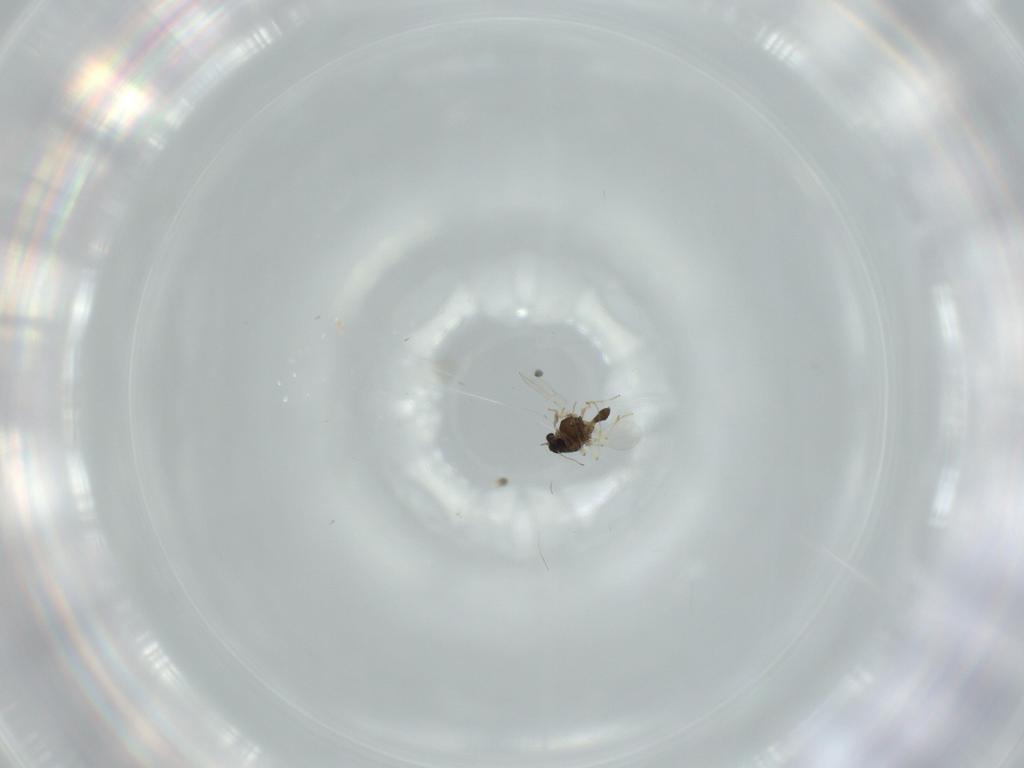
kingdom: Animalia
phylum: Arthropoda
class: Insecta
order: Diptera
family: Chironomidae
